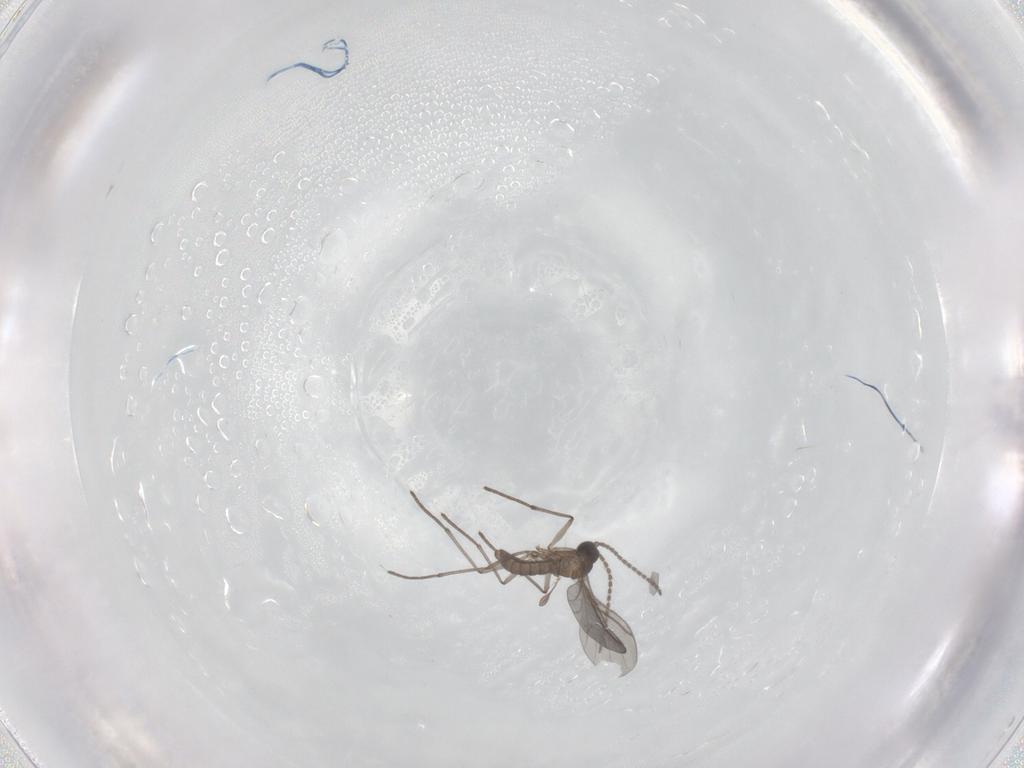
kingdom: Animalia
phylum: Arthropoda
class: Insecta
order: Diptera
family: Sciaridae
